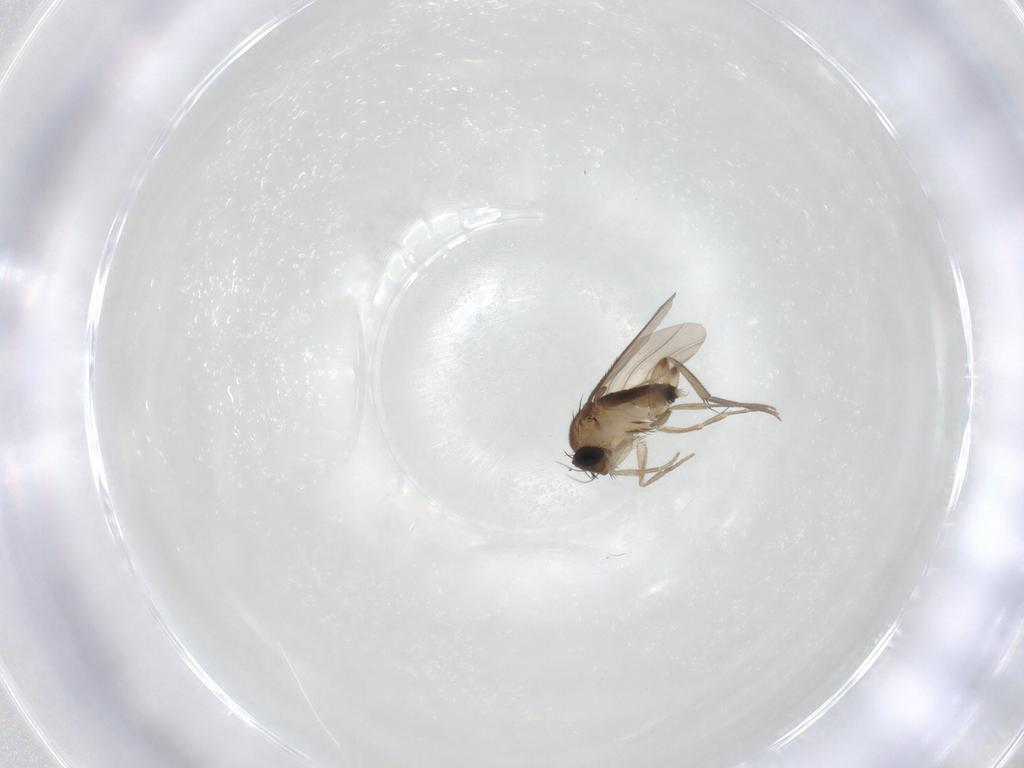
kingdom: Animalia
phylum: Arthropoda
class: Insecta
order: Diptera
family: Phoridae
